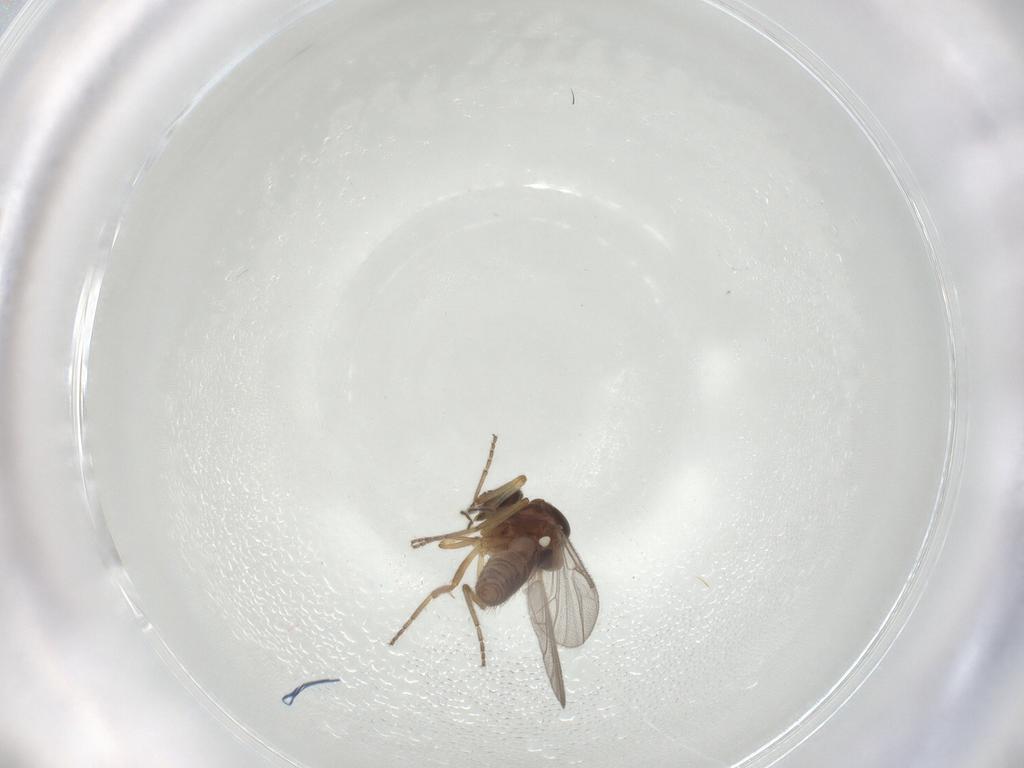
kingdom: Animalia
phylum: Arthropoda
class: Insecta
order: Diptera
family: Ceratopogonidae
